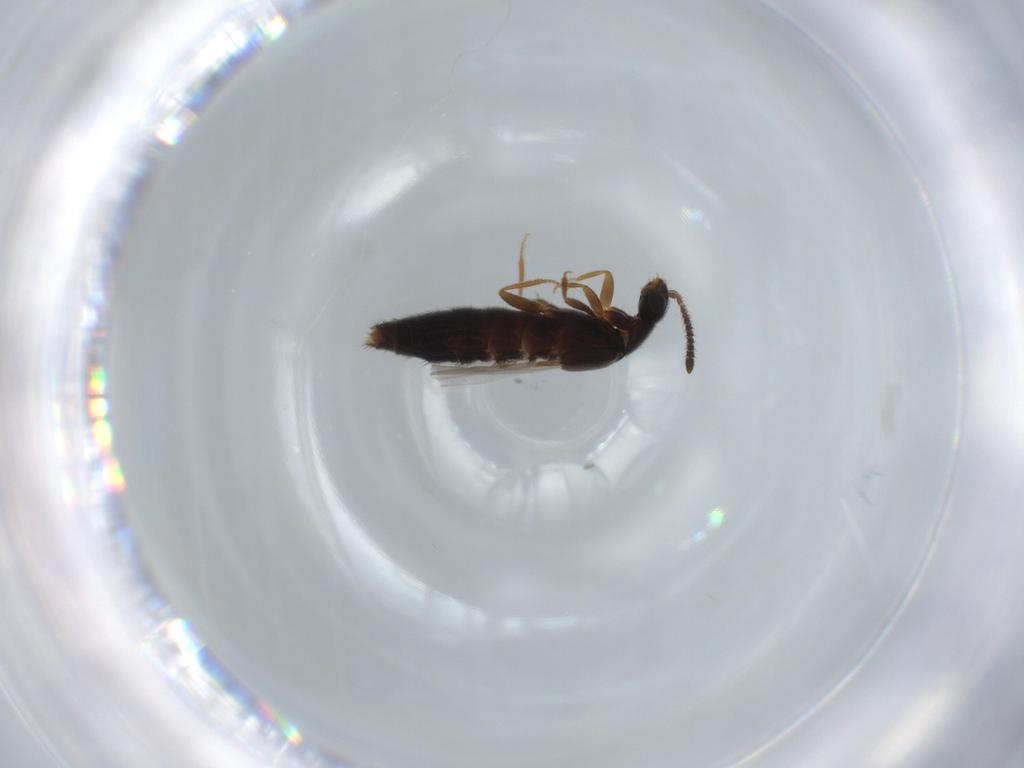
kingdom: Animalia
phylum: Arthropoda
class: Insecta
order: Coleoptera
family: Staphylinidae
